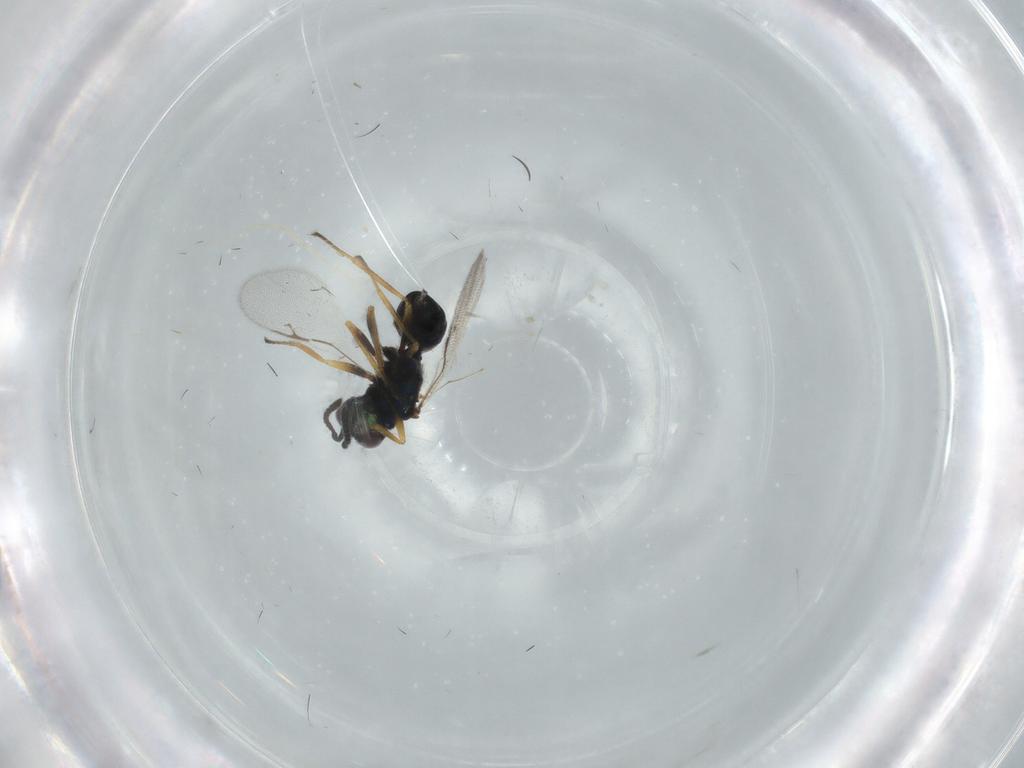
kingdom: Animalia
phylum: Arthropoda
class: Insecta
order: Hymenoptera
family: Pteromalidae
